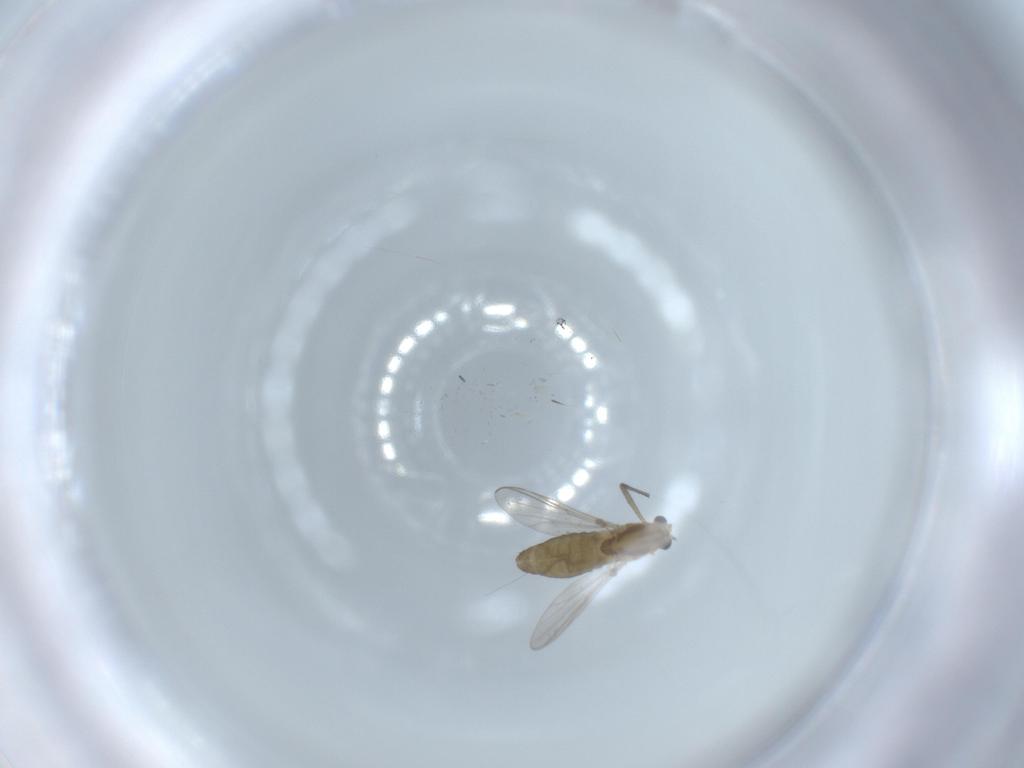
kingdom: Animalia
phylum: Arthropoda
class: Insecta
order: Diptera
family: Chironomidae
